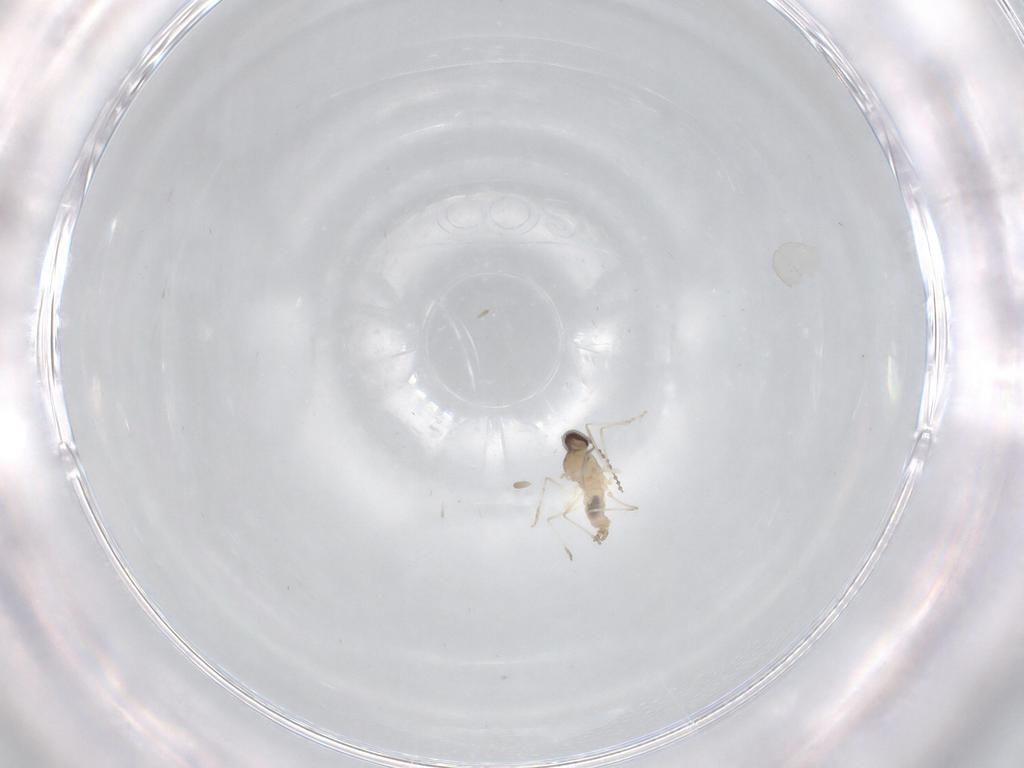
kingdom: Animalia
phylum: Arthropoda
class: Insecta
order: Diptera
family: Cecidomyiidae
